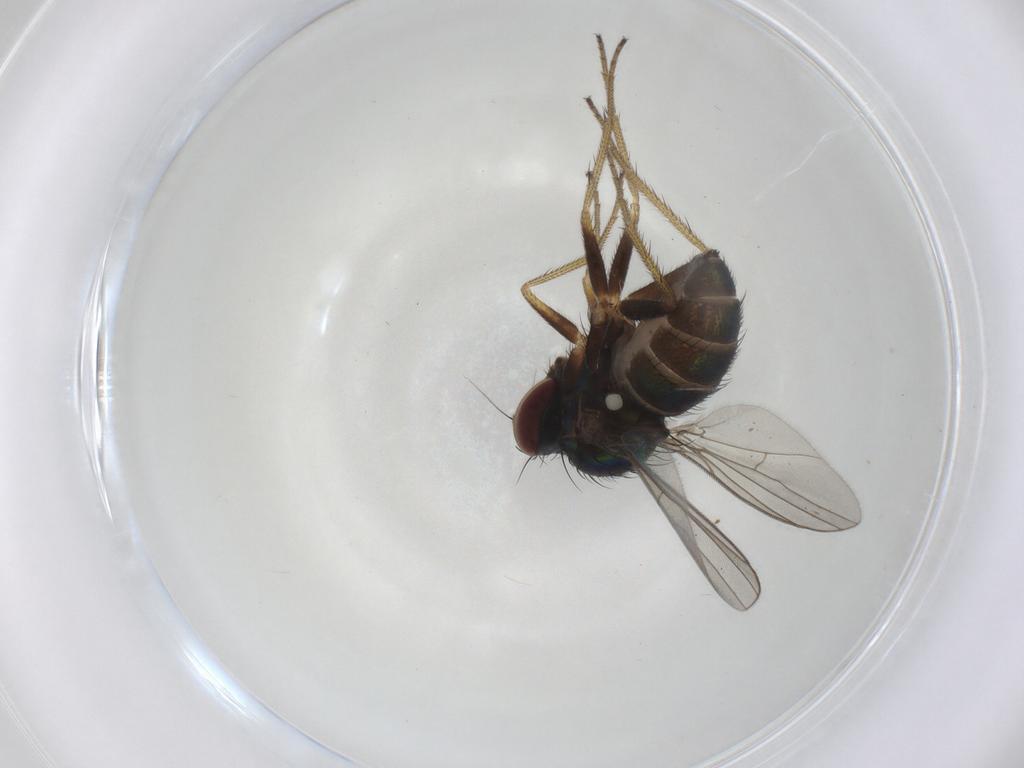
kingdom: Animalia
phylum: Arthropoda
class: Insecta
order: Diptera
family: Dolichopodidae
